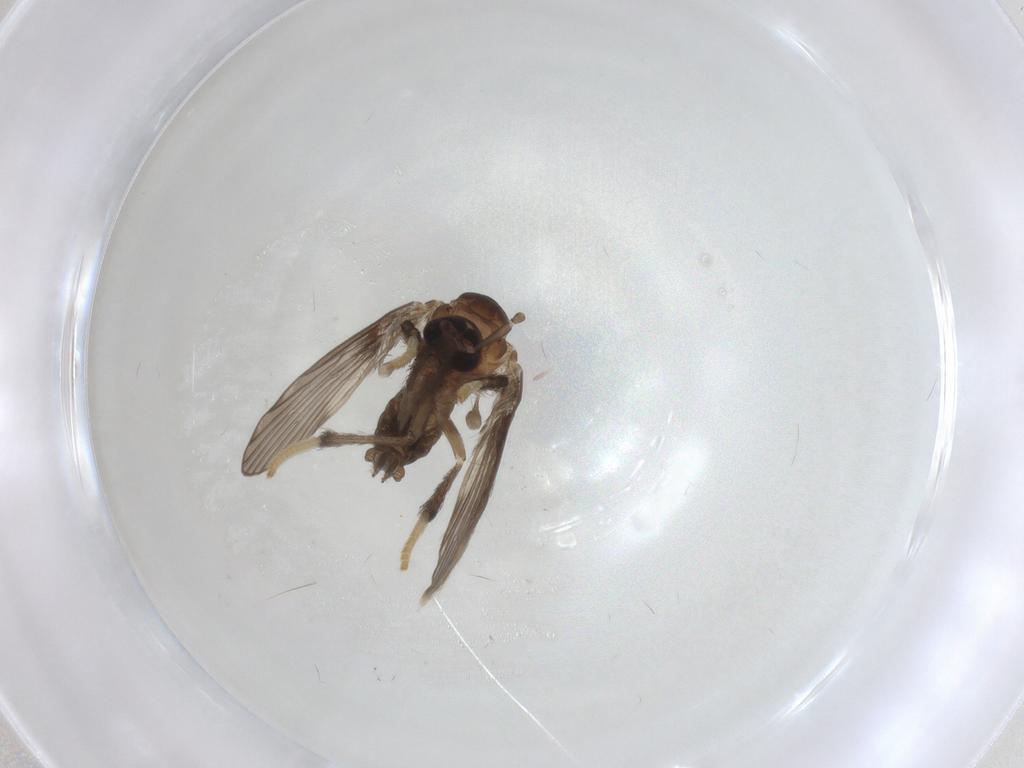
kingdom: Animalia
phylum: Arthropoda
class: Insecta
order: Diptera
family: Psychodidae
